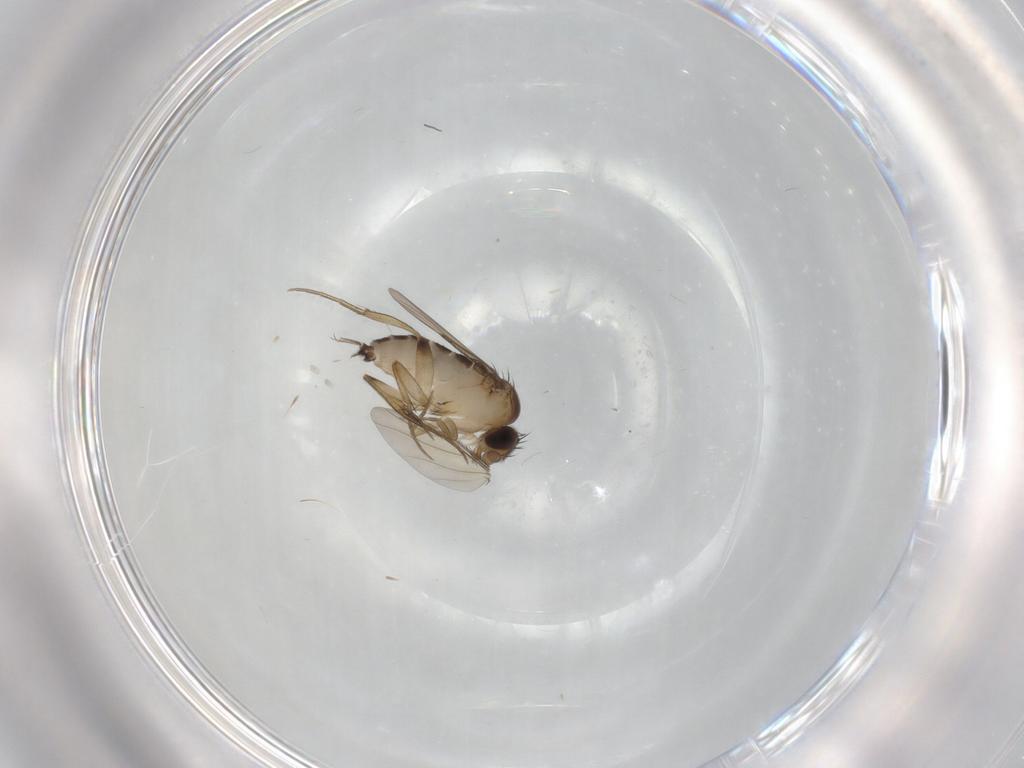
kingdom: Animalia
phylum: Arthropoda
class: Insecta
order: Diptera
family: Phoridae
